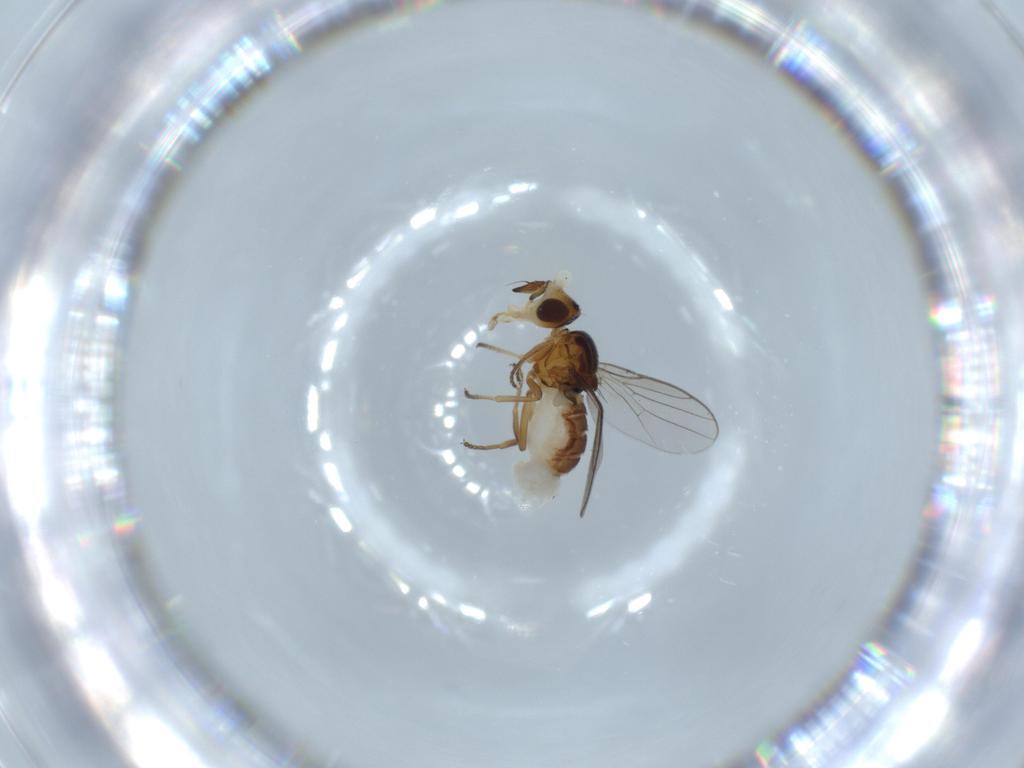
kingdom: Animalia
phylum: Arthropoda
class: Insecta
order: Diptera
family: Chloropidae
